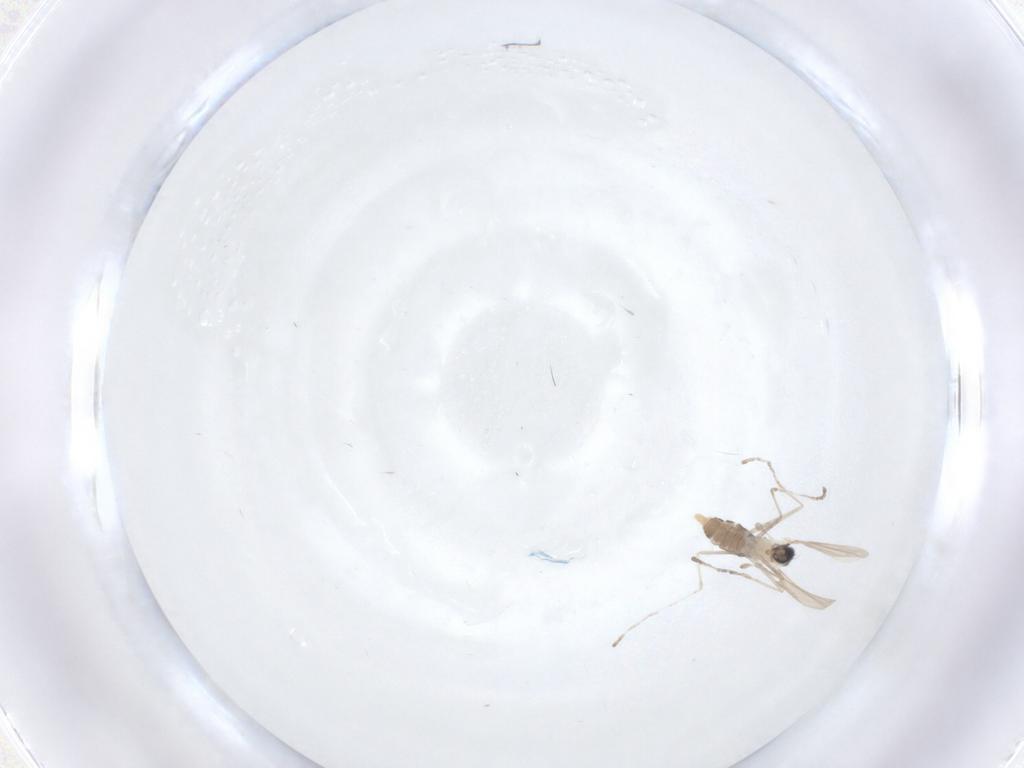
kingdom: Animalia
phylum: Arthropoda
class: Insecta
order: Diptera
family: Cecidomyiidae
